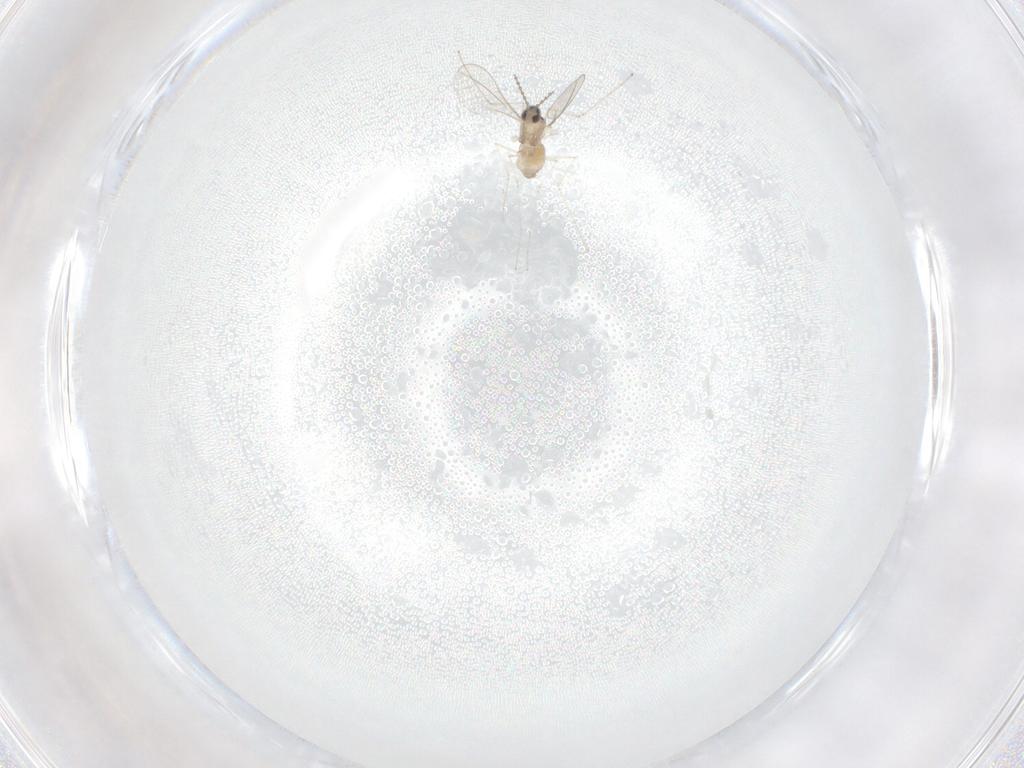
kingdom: Animalia
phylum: Arthropoda
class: Insecta
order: Diptera
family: Cecidomyiidae
